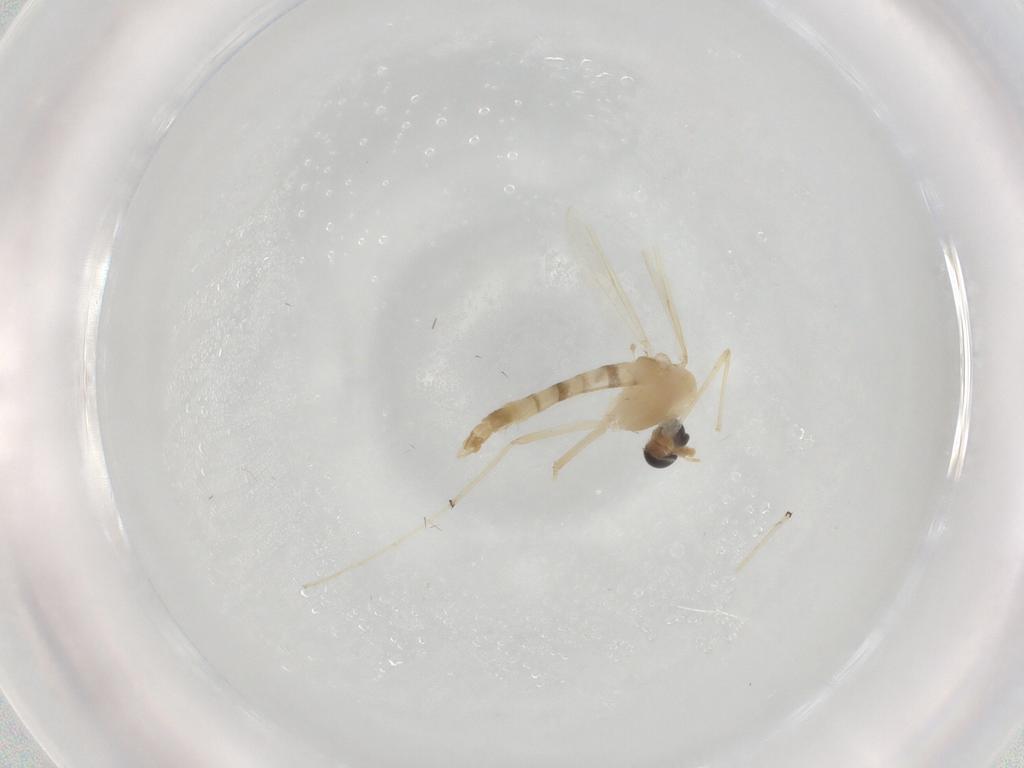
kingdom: Animalia
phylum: Arthropoda
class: Insecta
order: Diptera
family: Chironomidae
